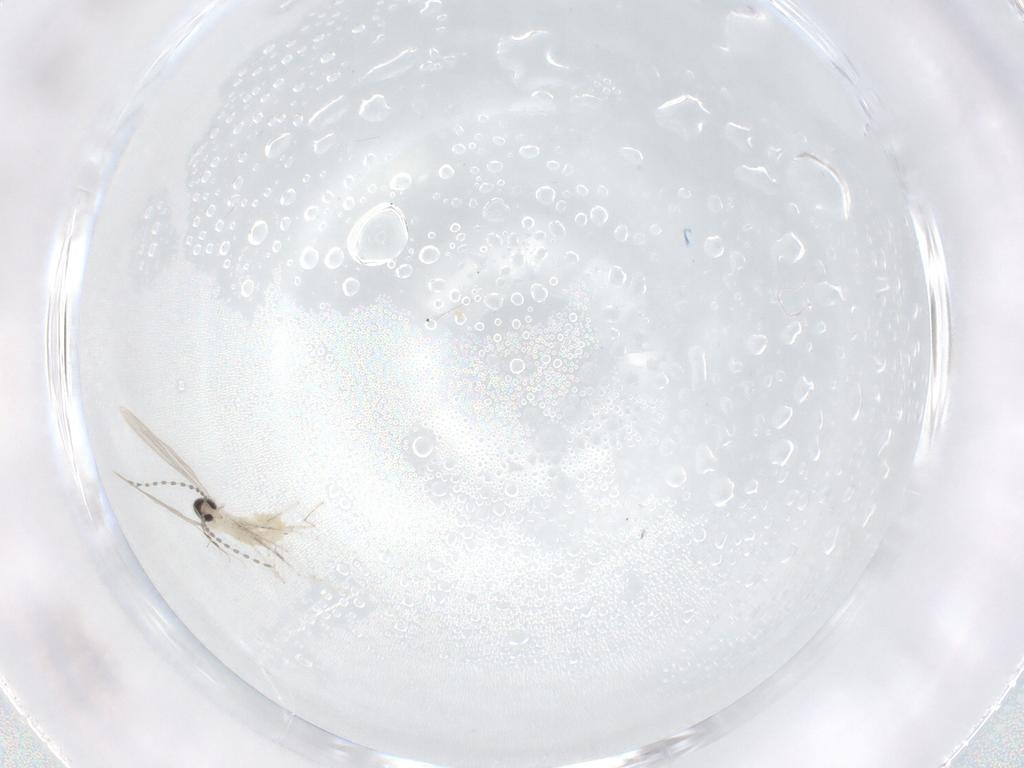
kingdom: Animalia
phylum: Arthropoda
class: Insecta
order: Diptera
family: Cecidomyiidae
